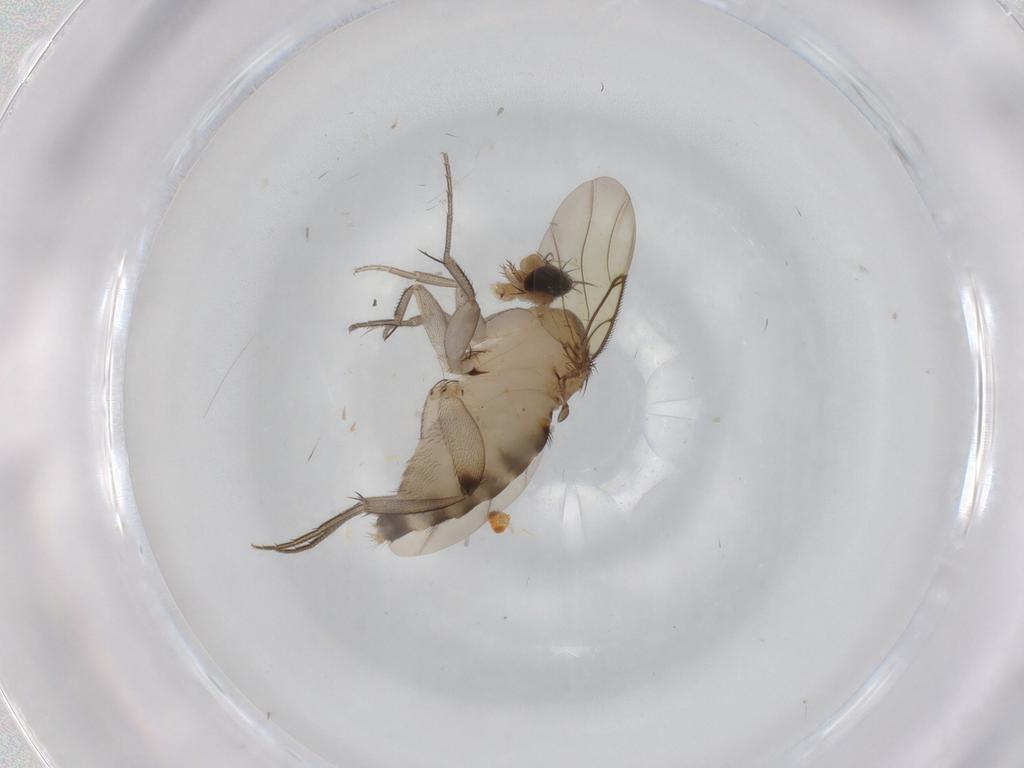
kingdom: Animalia
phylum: Arthropoda
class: Insecta
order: Diptera
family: Phoridae
